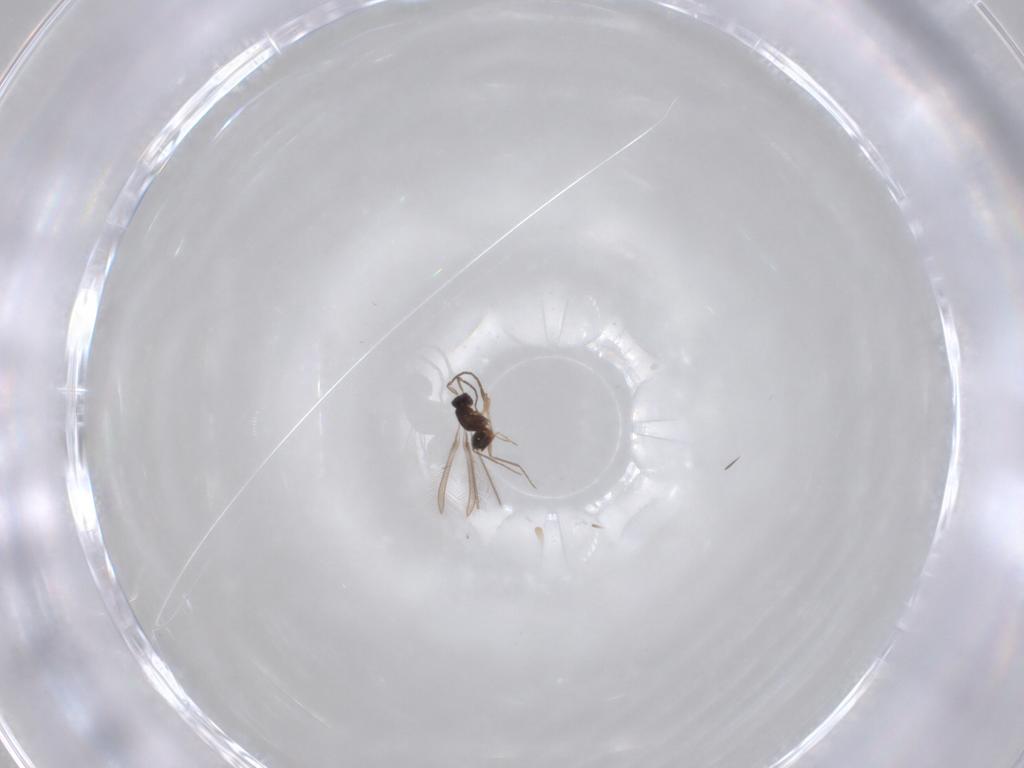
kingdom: Animalia
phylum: Arthropoda
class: Insecta
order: Hymenoptera
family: Mymaridae
